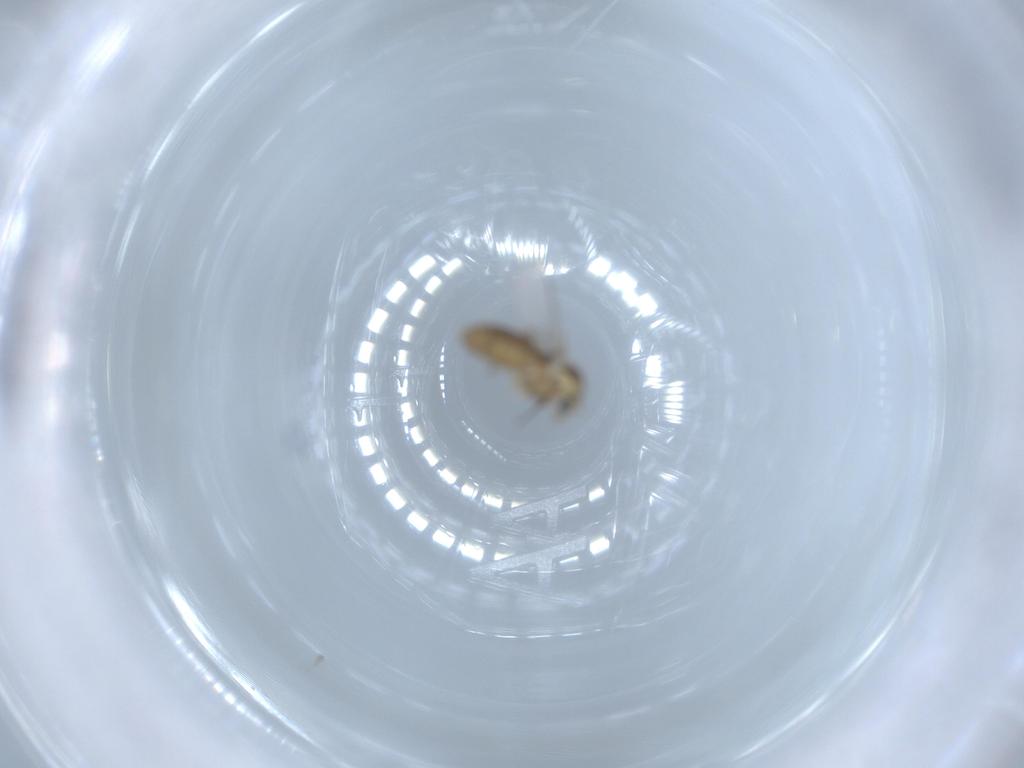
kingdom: Animalia
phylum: Arthropoda
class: Insecta
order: Diptera
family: Chironomidae
